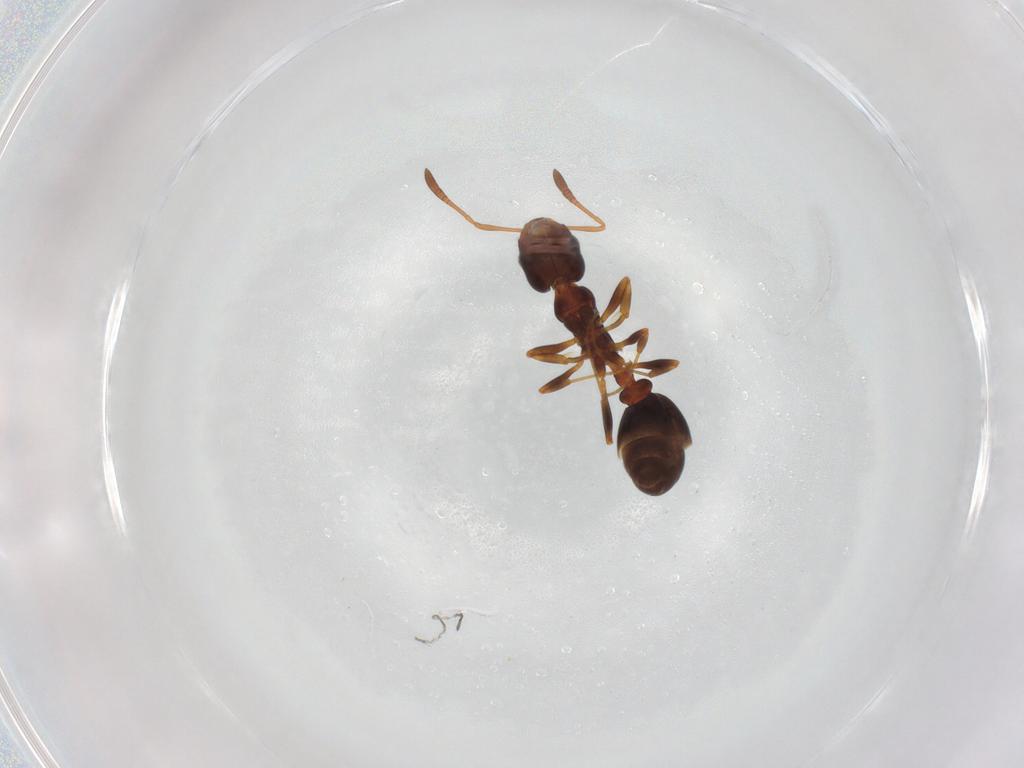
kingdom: Animalia
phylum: Arthropoda
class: Insecta
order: Hymenoptera
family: Formicidae
